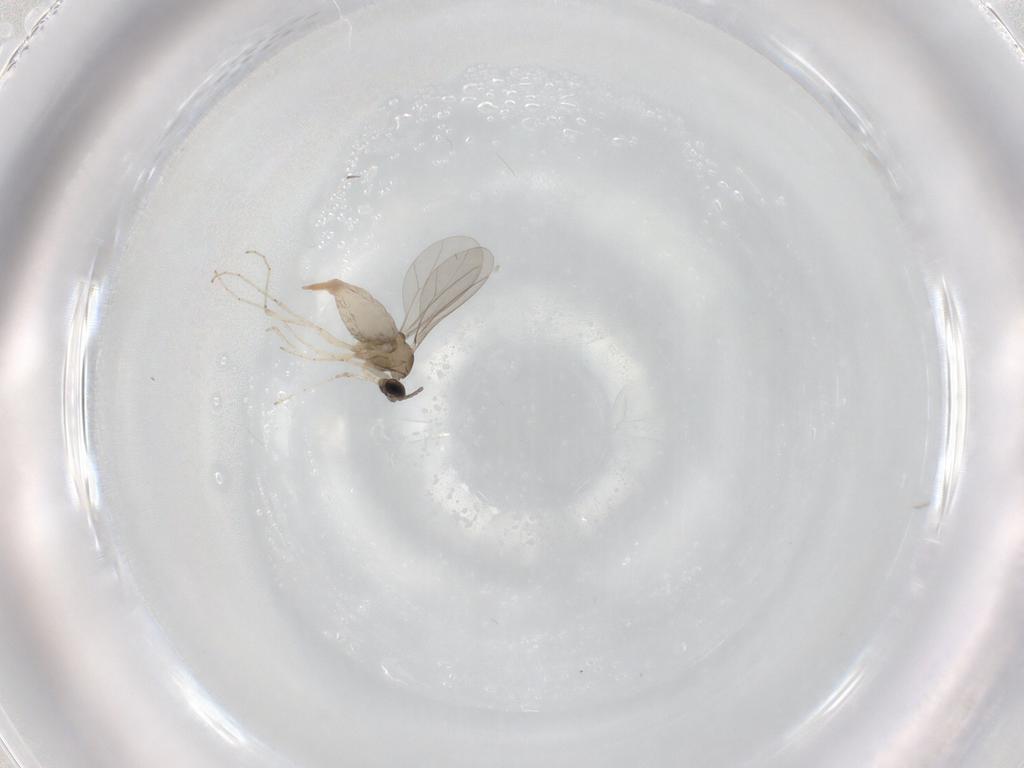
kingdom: Animalia
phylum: Arthropoda
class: Insecta
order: Diptera
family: Cecidomyiidae
